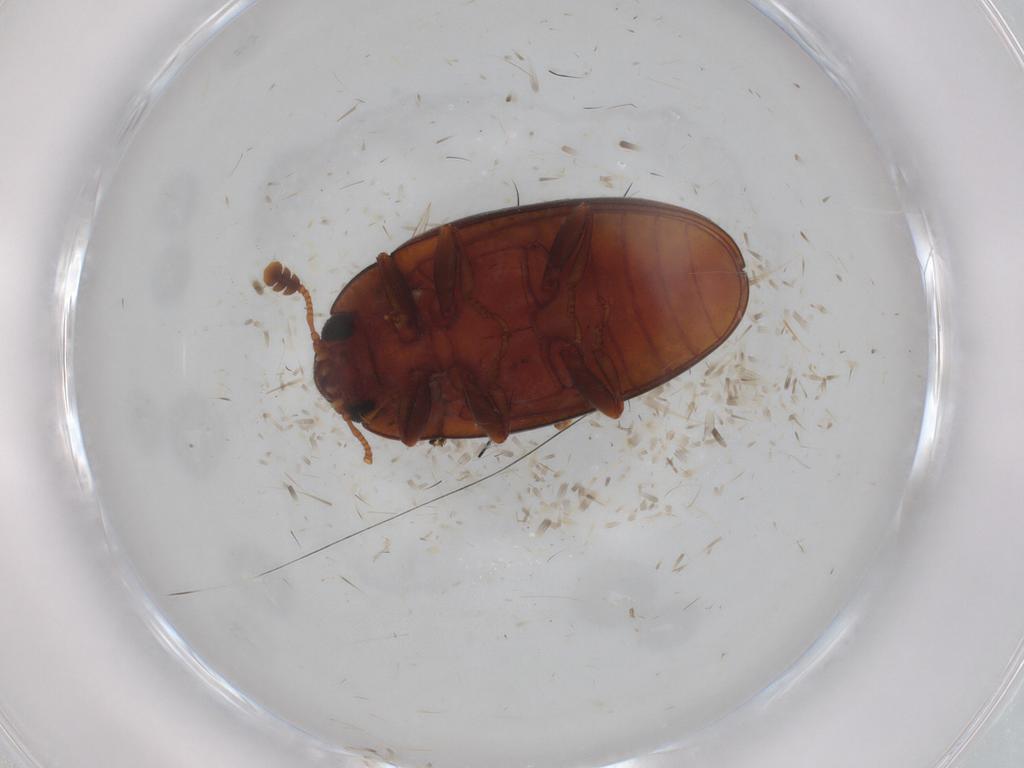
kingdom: Animalia
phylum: Arthropoda
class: Insecta
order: Coleoptera
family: Erotylidae
